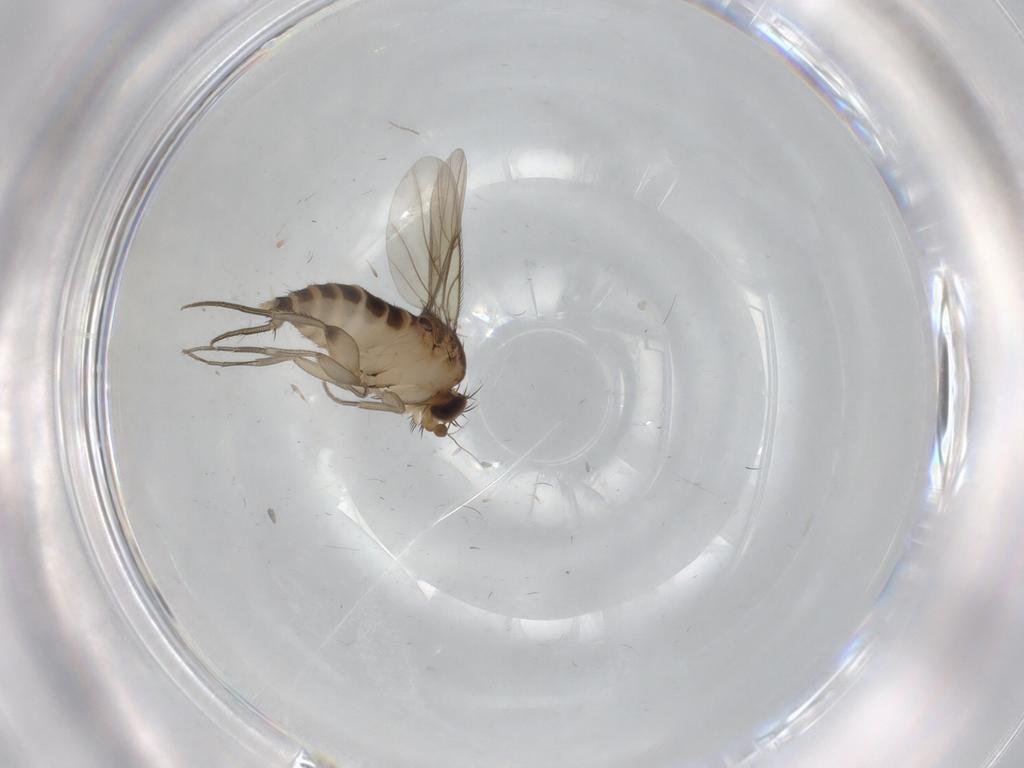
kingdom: Animalia
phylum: Arthropoda
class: Insecta
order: Diptera
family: Phoridae
